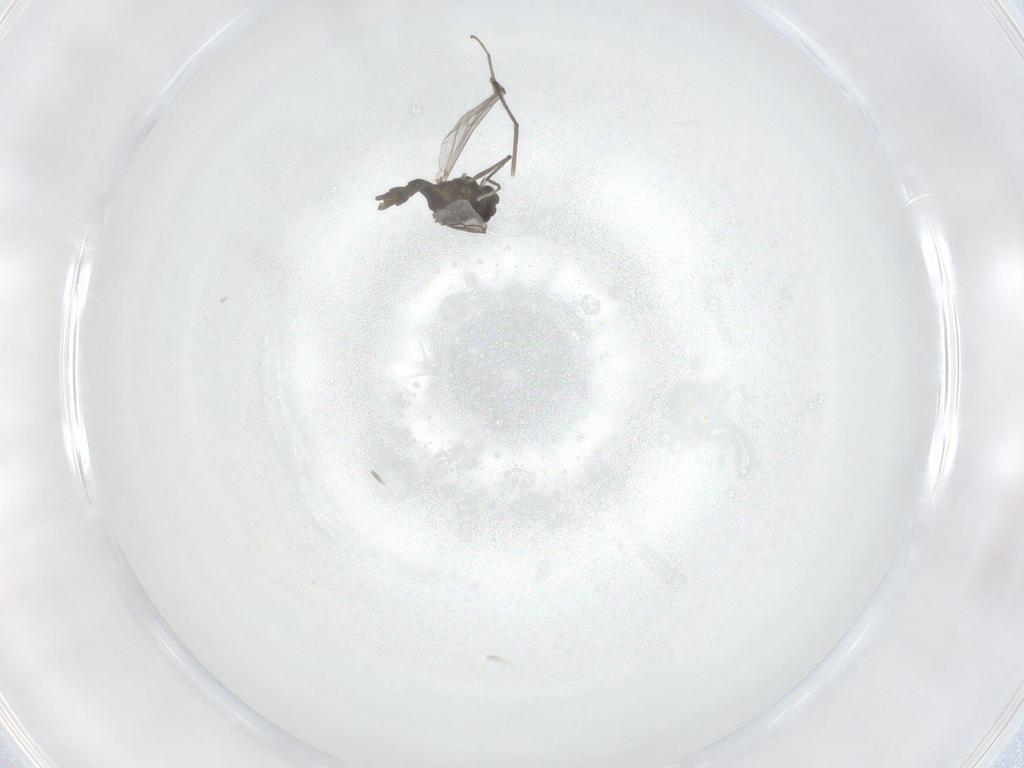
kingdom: Animalia
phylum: Arthropoda
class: Insecta
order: Diptera
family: Chironomidae
